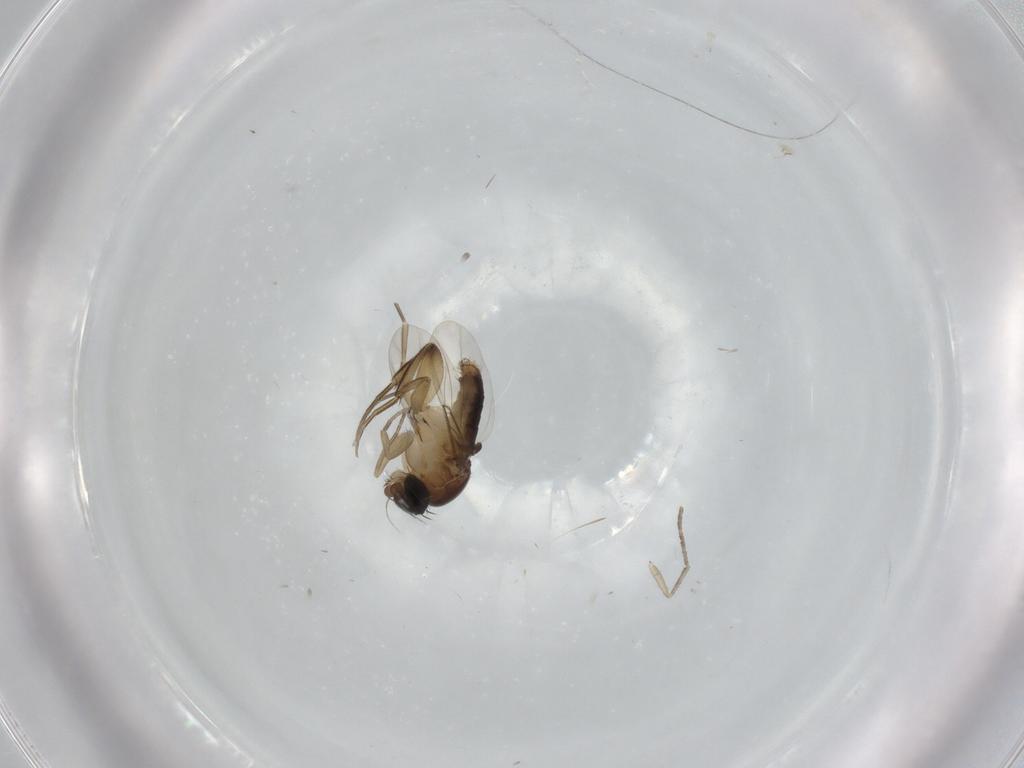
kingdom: Animalia
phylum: Arthropoda
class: Insecta
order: Diptera
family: Phoridae
